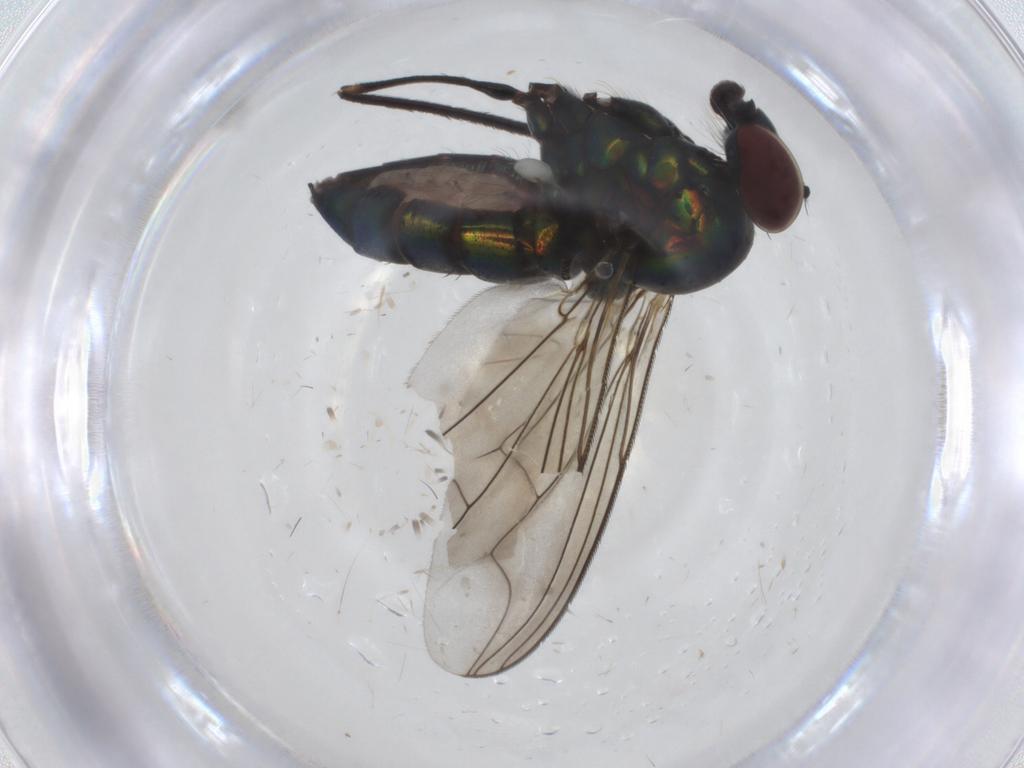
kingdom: Animalia
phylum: Arthropoda
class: Insecta
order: Diptera
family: Dolichopodidae
